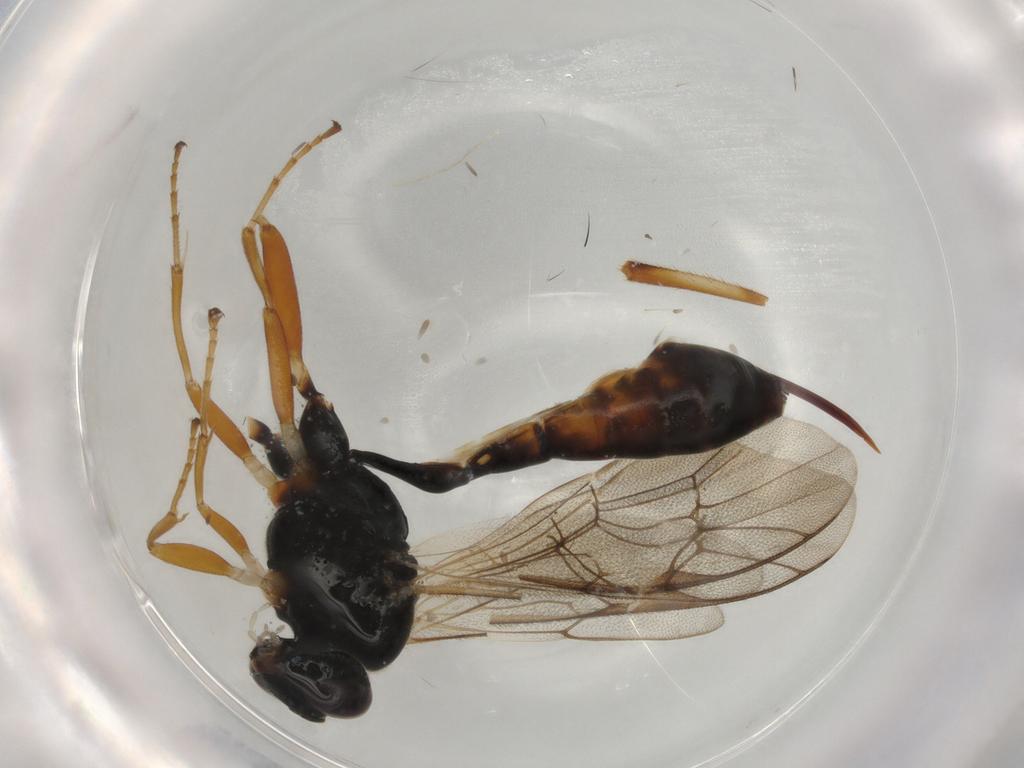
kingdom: Animalia
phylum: Arthropoda
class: Insecta
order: Hymenoptera
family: Ichneumonidae
